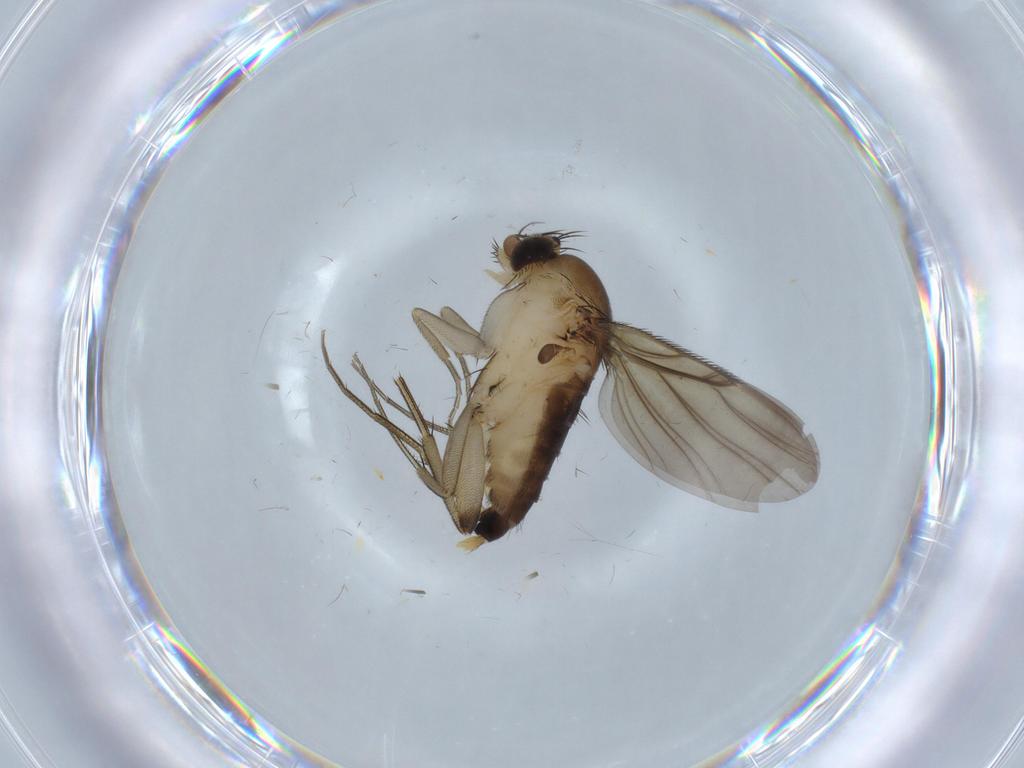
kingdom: Animalia
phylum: Arthropoda
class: Insecta
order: Diptera
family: Phoridae
